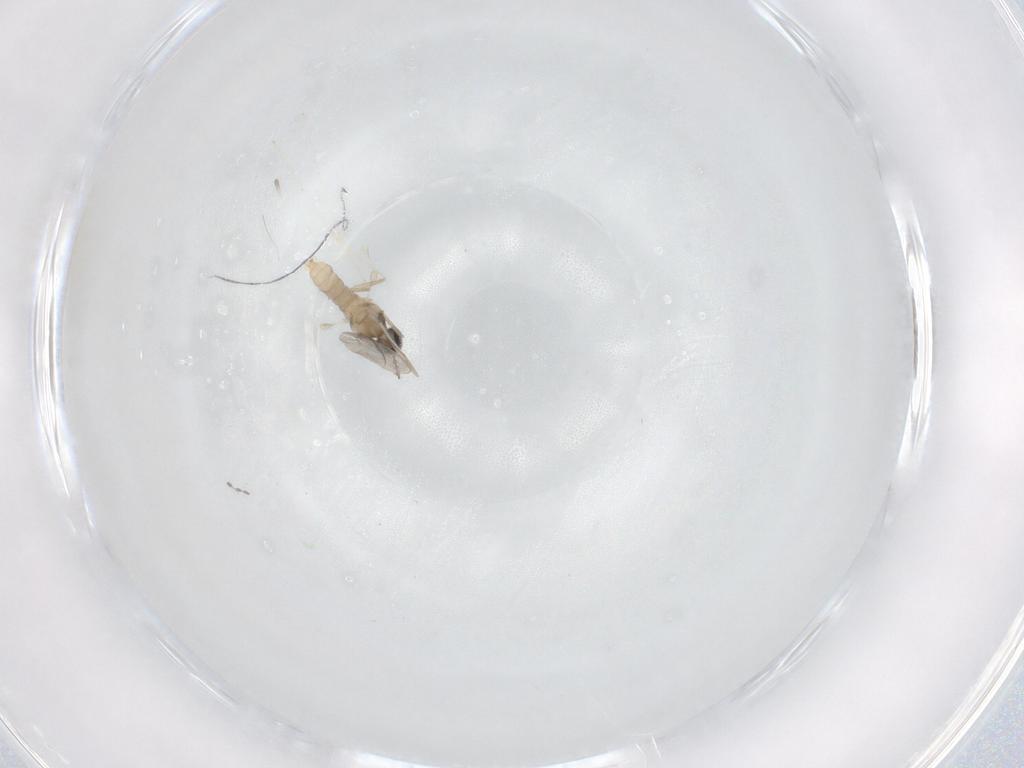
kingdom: Animalia
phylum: Arthropoda
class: Insecta
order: Diptera
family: Cecidomyiidae
